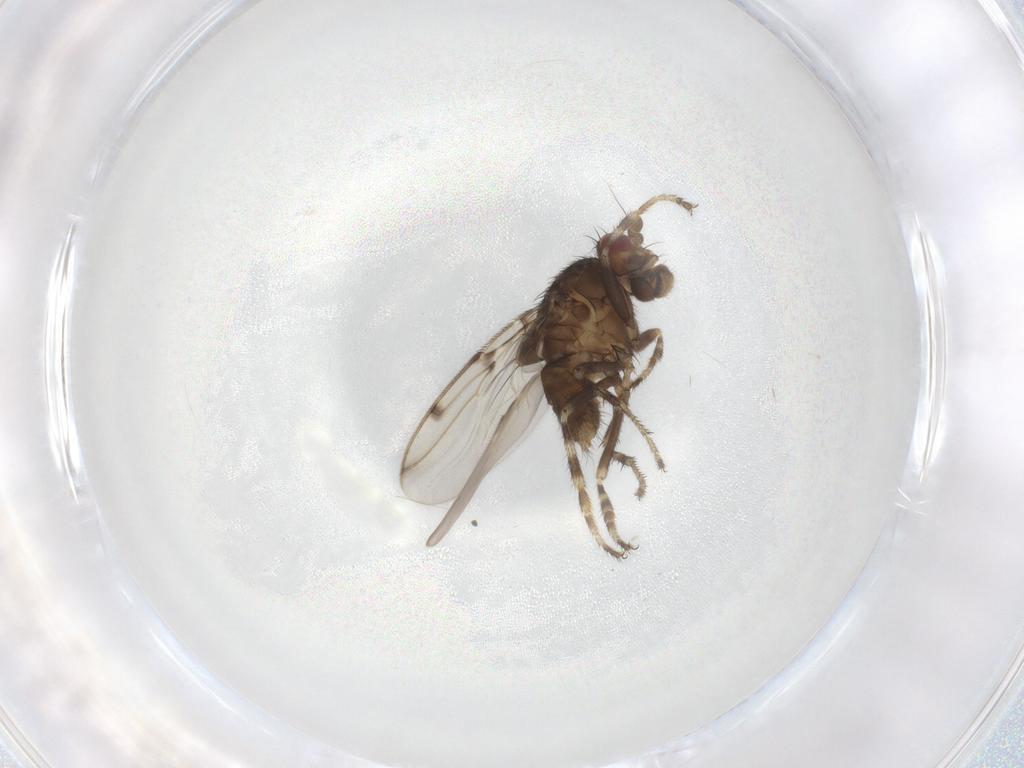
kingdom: Animalia
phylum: Arthropoda
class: Insecta
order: Diptera
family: Sphaeroceridae
